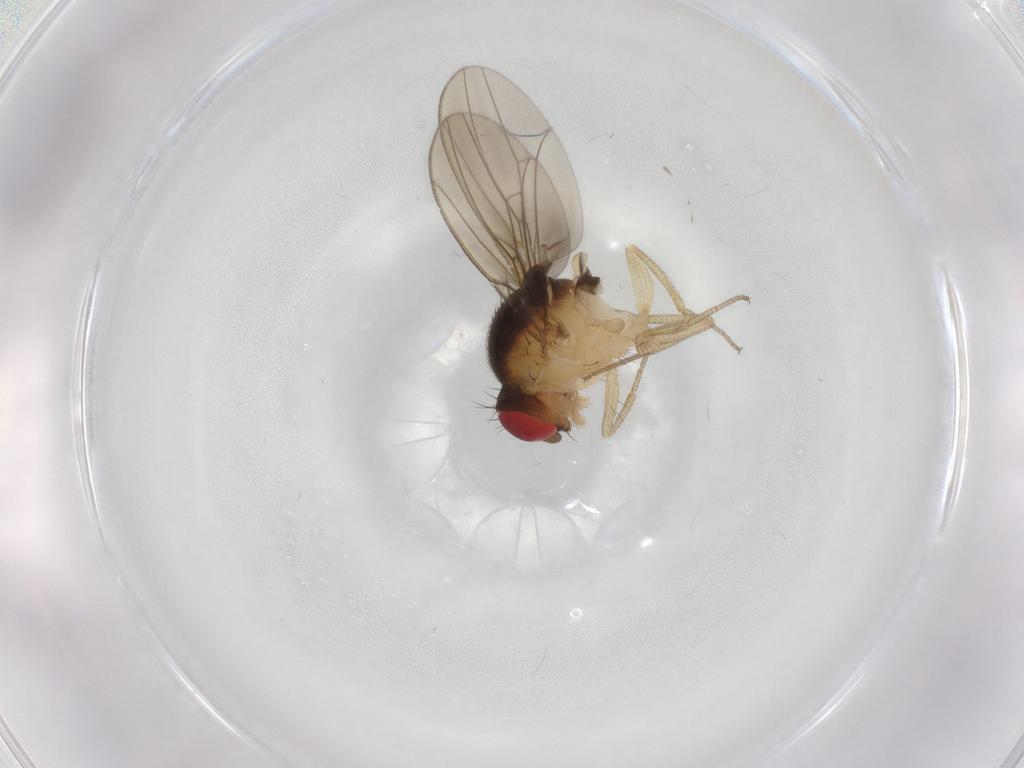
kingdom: Animalia
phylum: Arthropoda
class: Insecta
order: Diptera
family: Drosophilidae
